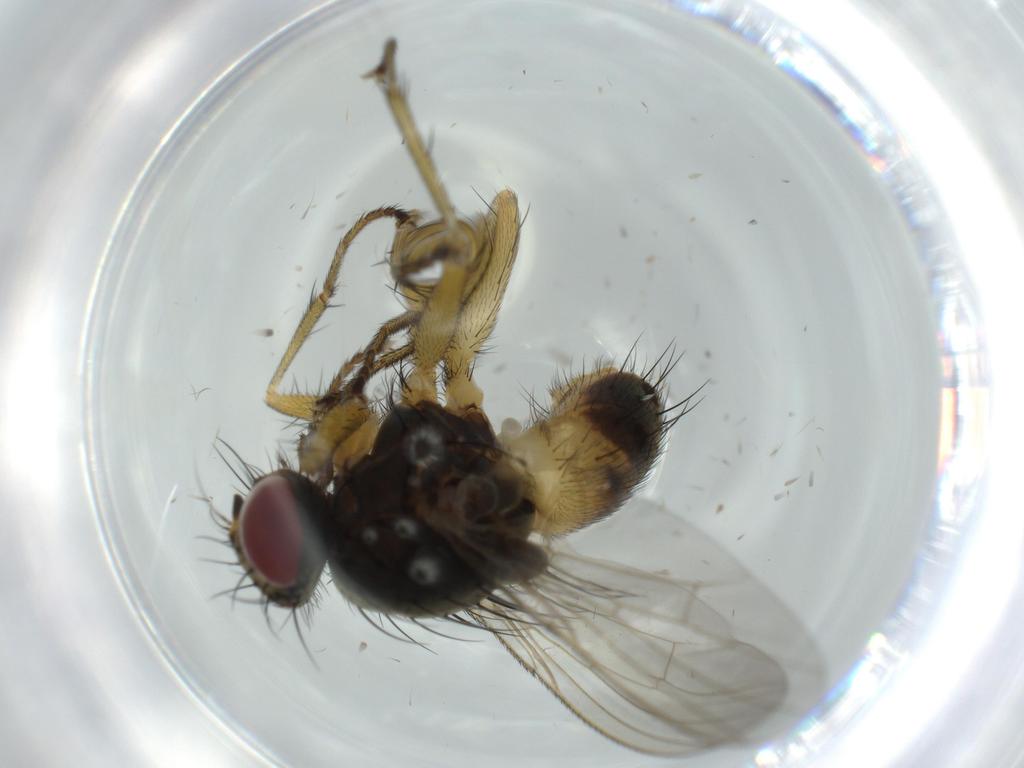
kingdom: Animalia
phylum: Arthropoda
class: Insecta
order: Diptera
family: Muscidae
